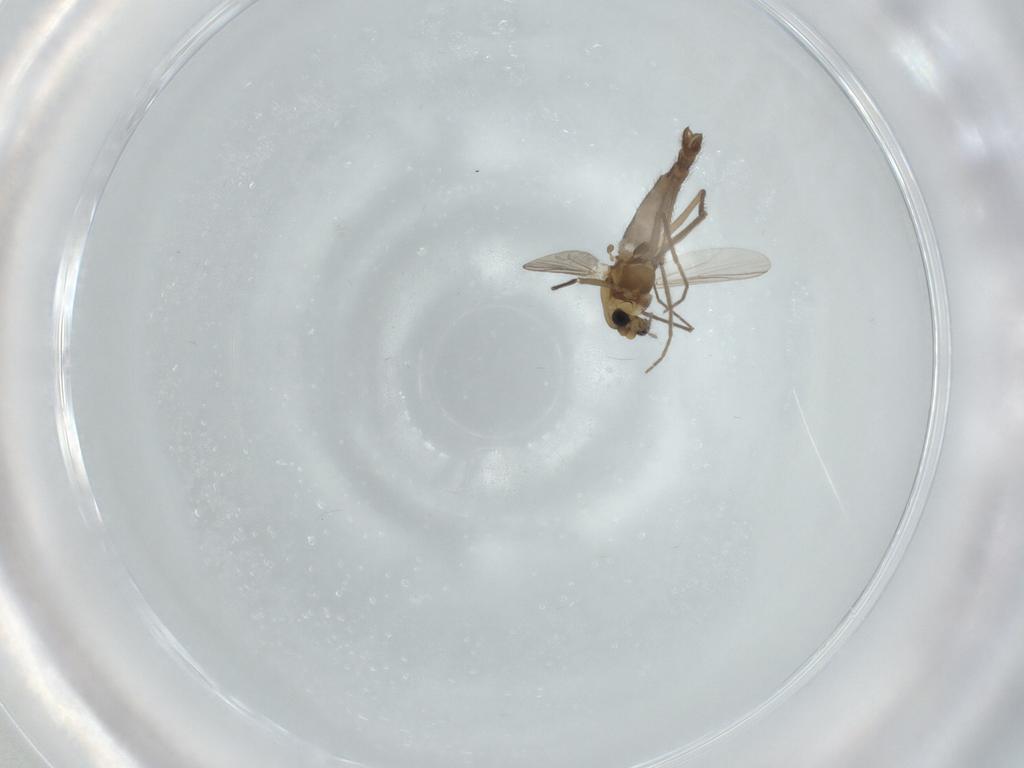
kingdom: Animalia
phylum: Arthropoda
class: Insecta
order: Diptera
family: Chironomidae
